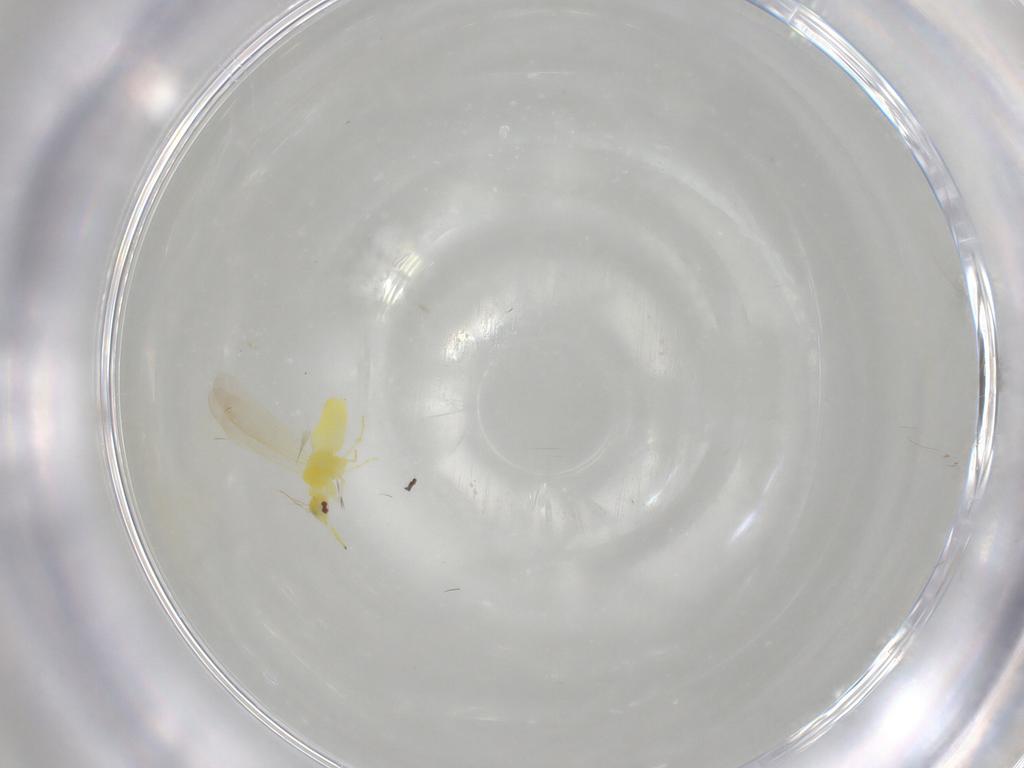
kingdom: Animalia
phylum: Arthropoda
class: Insecta
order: Hemiptera
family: Aleyrodidae
